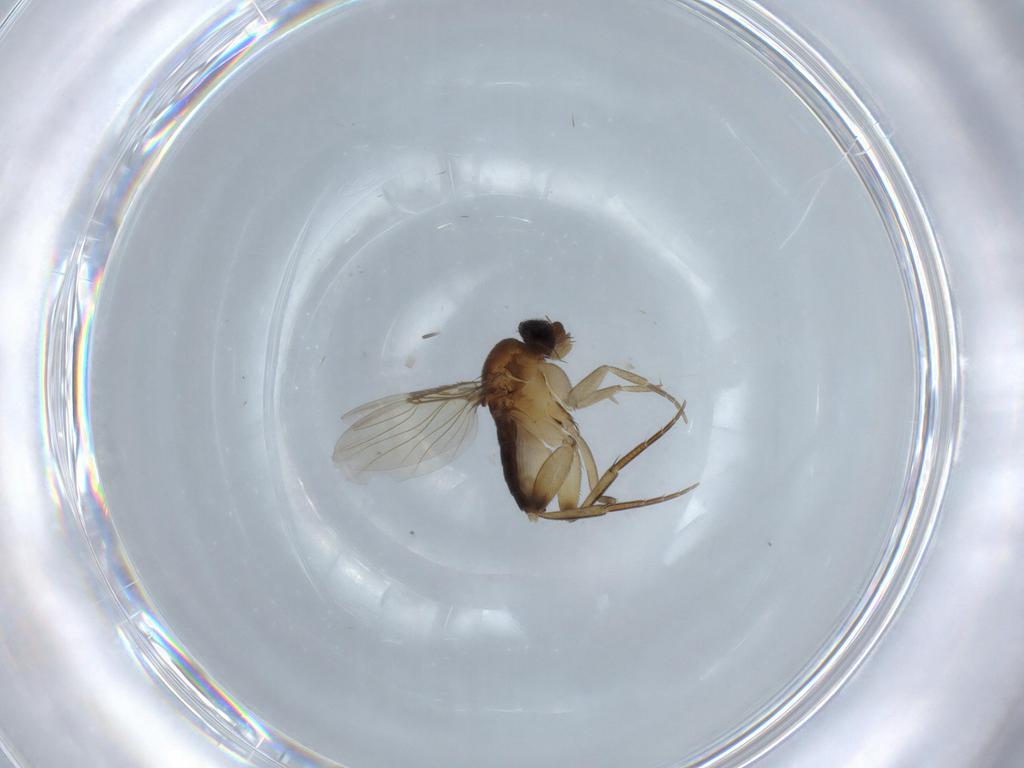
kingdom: Animalia
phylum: Arthropoda
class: Insecta
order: Diptera
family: Phoridae
